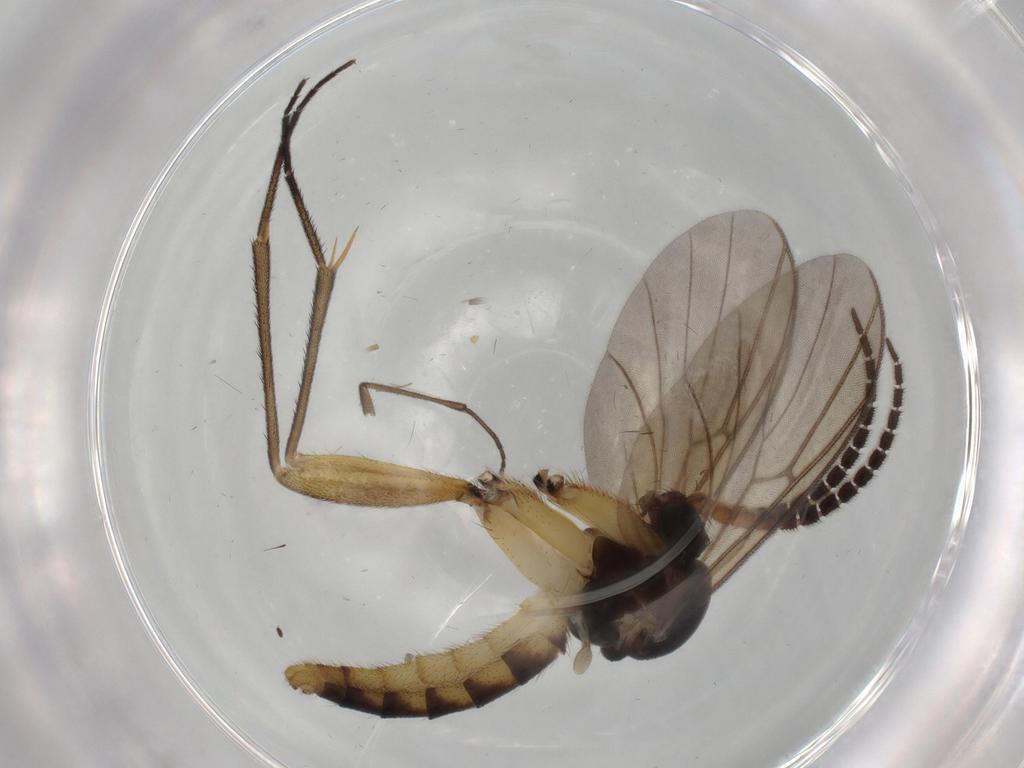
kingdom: Animalia
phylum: Arthropoda
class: Insecta
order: Diptera
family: Sciaridae
